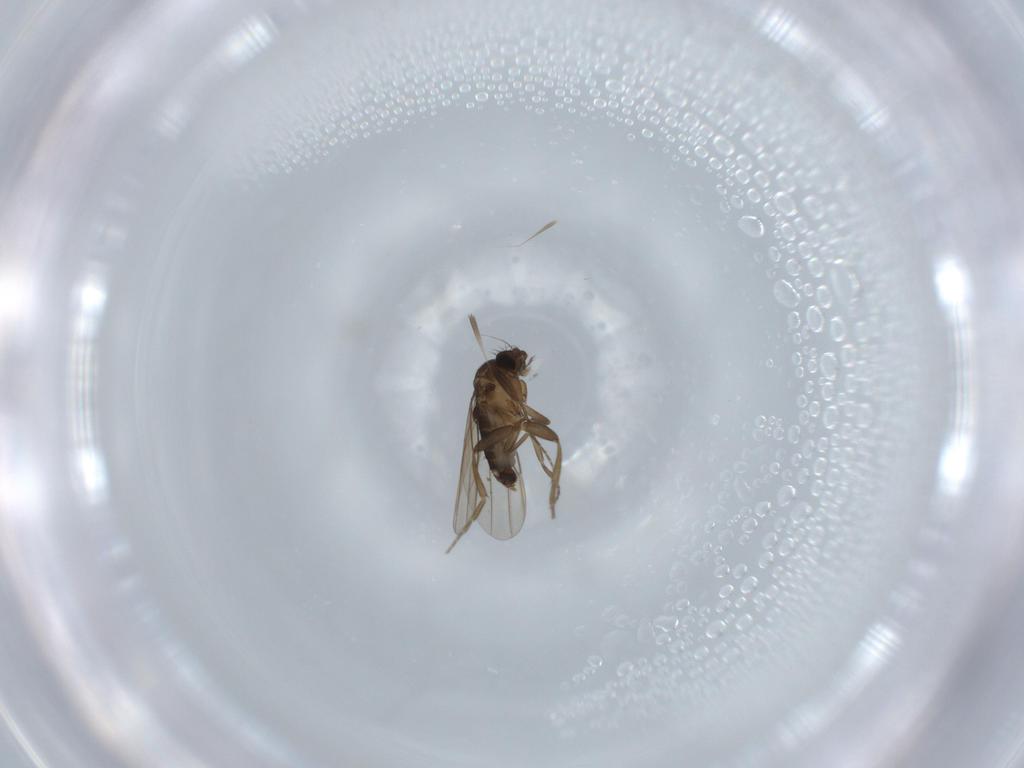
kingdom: Animalia
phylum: Arthropoda
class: Insecta
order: Diptera
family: Phoridae
